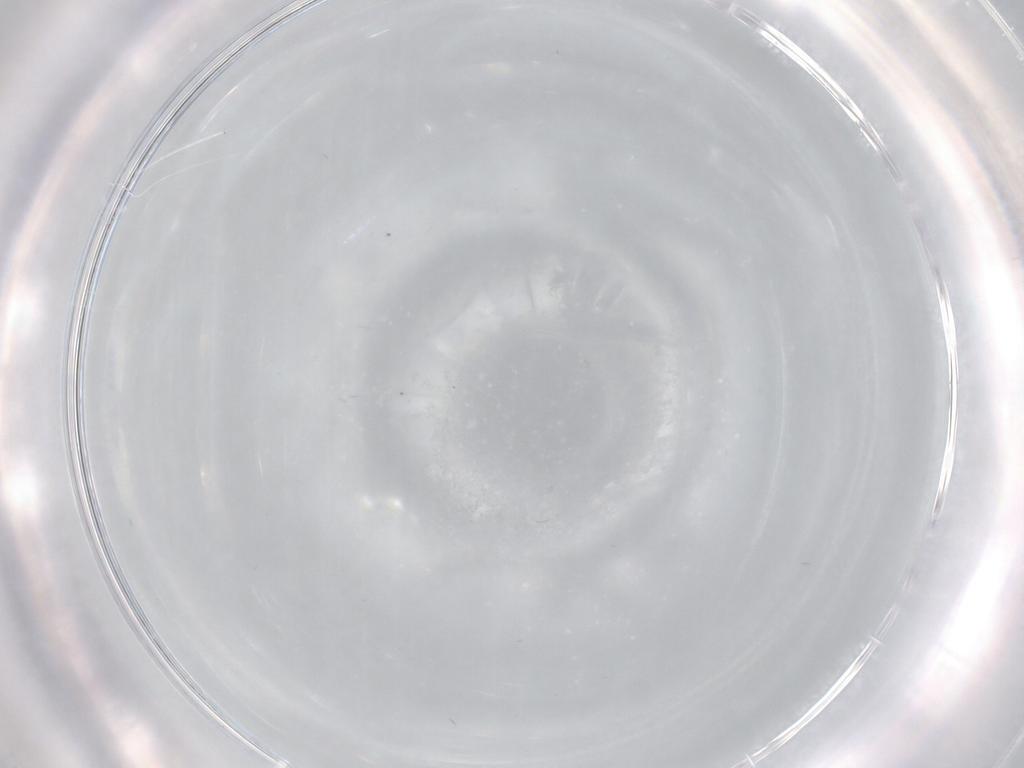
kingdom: Animalia
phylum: Arthropoda
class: Insecta
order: Diptera
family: Cecidomyiidae
